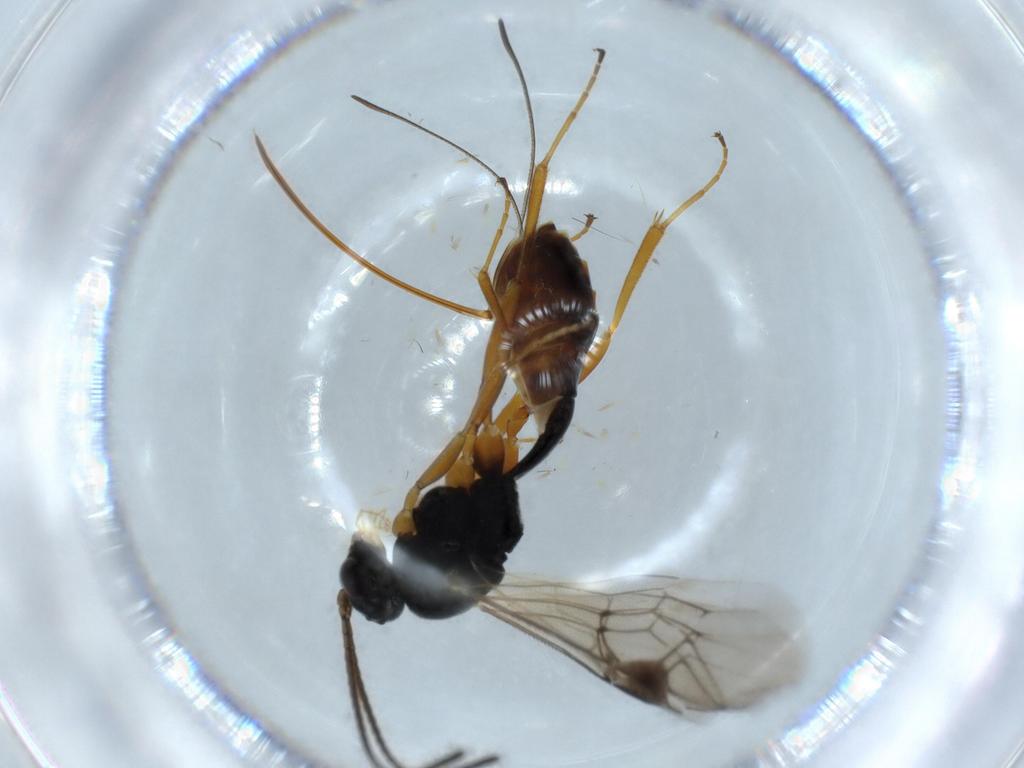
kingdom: Animalia
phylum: Arthropoda
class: Insecta
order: Hymenoptera
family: Ichneumonidae
